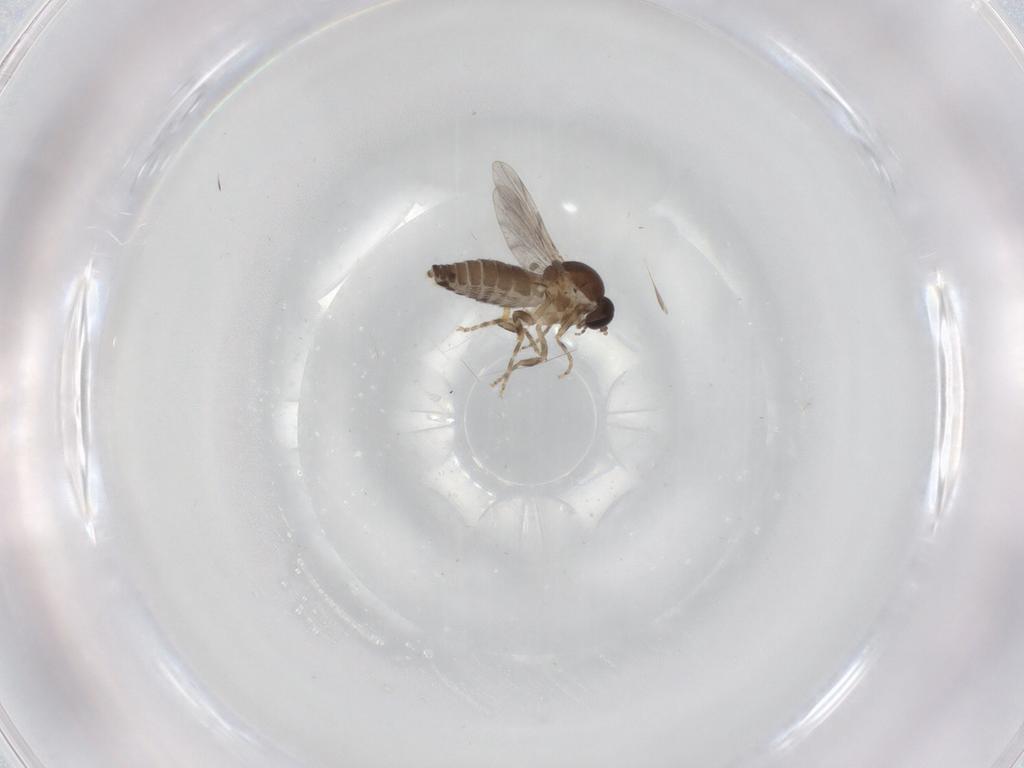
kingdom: Animalia
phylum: Arthropoda
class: Insecta
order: Diptera
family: Ceratopogonidae
